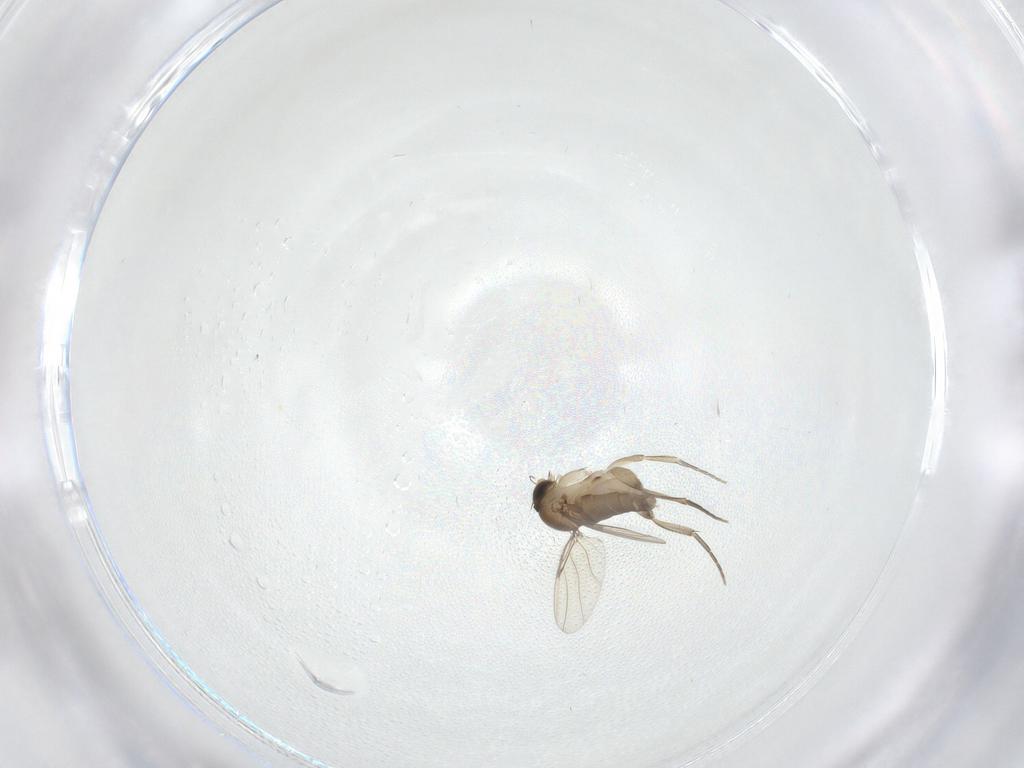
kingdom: Animalia
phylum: Arthropoda
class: Insecta
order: Diptera
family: Phoridae
